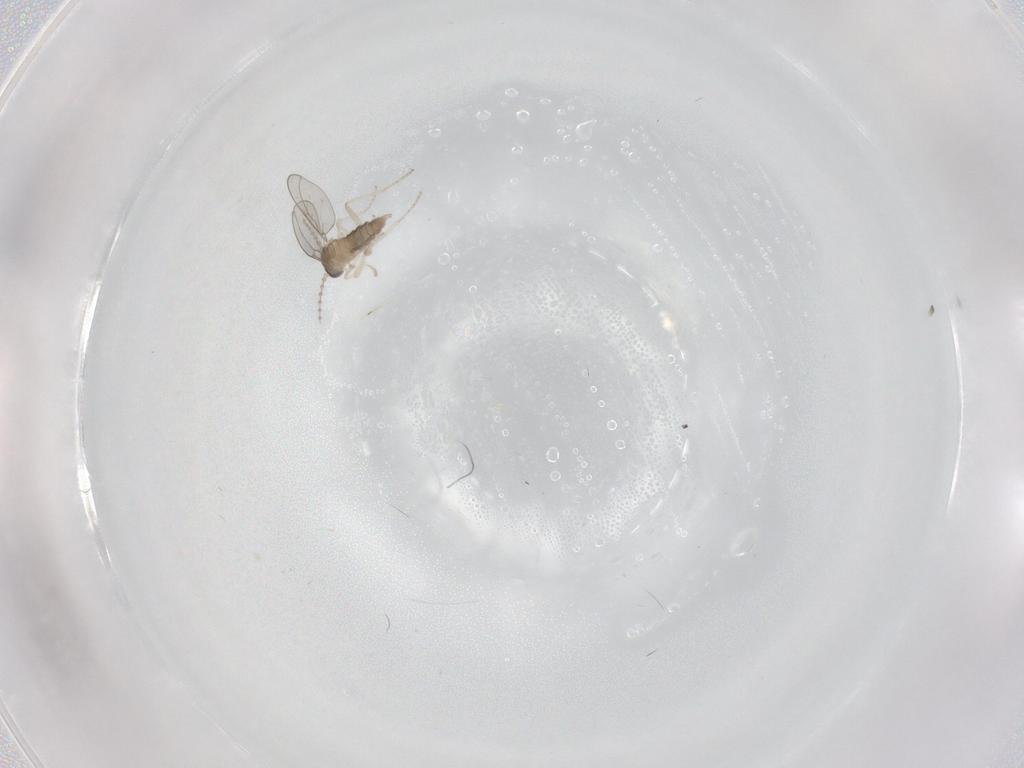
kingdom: Animalia
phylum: Arthropoda
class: Insecta
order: Diptera
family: Cecidomyiidae
